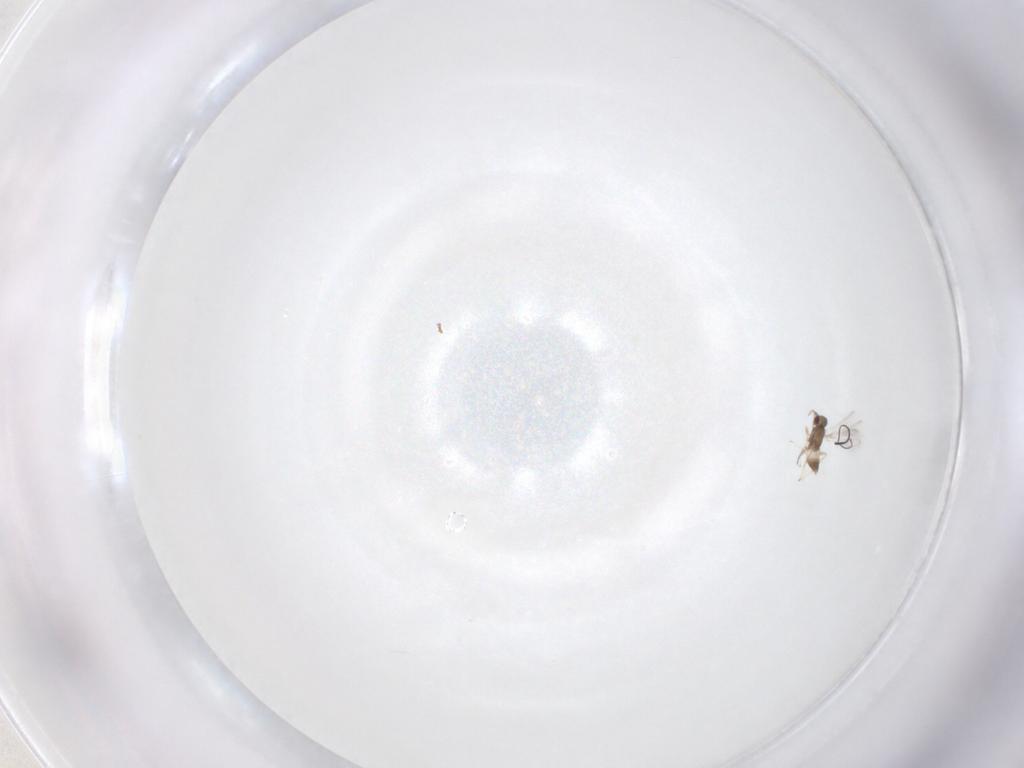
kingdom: Animalia
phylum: Arthropoda
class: Insecta
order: Hymenoptera
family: Mymaridae
